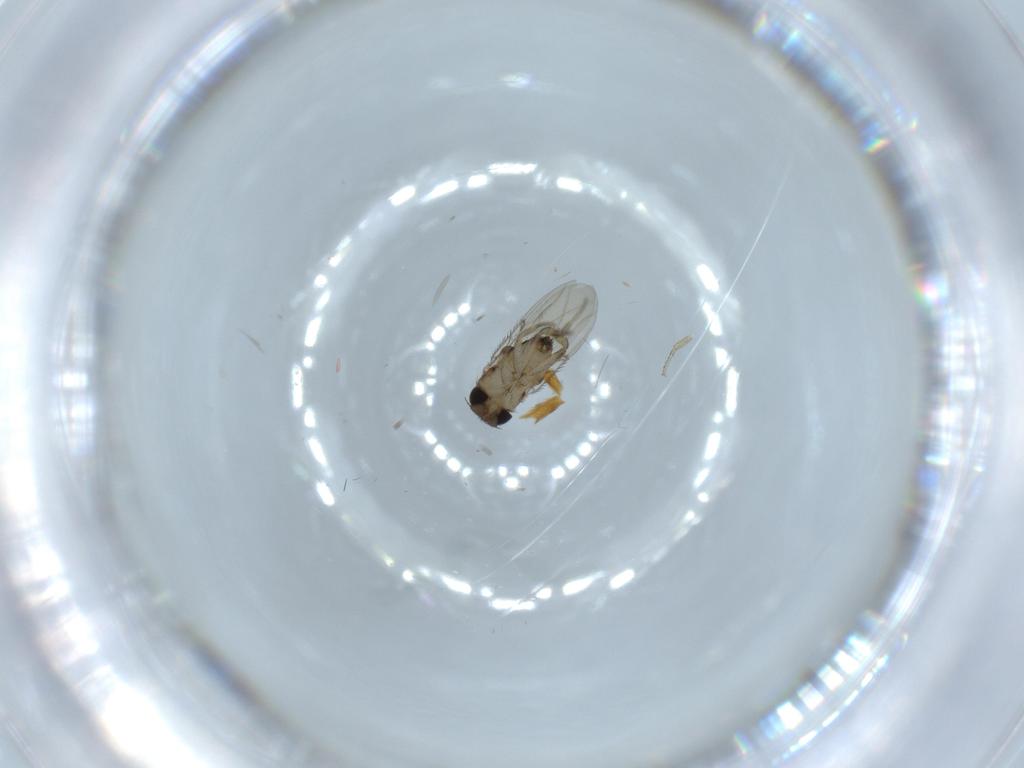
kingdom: Animalia
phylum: Arthropoda
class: Insecta
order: Diptera
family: Phoridae
